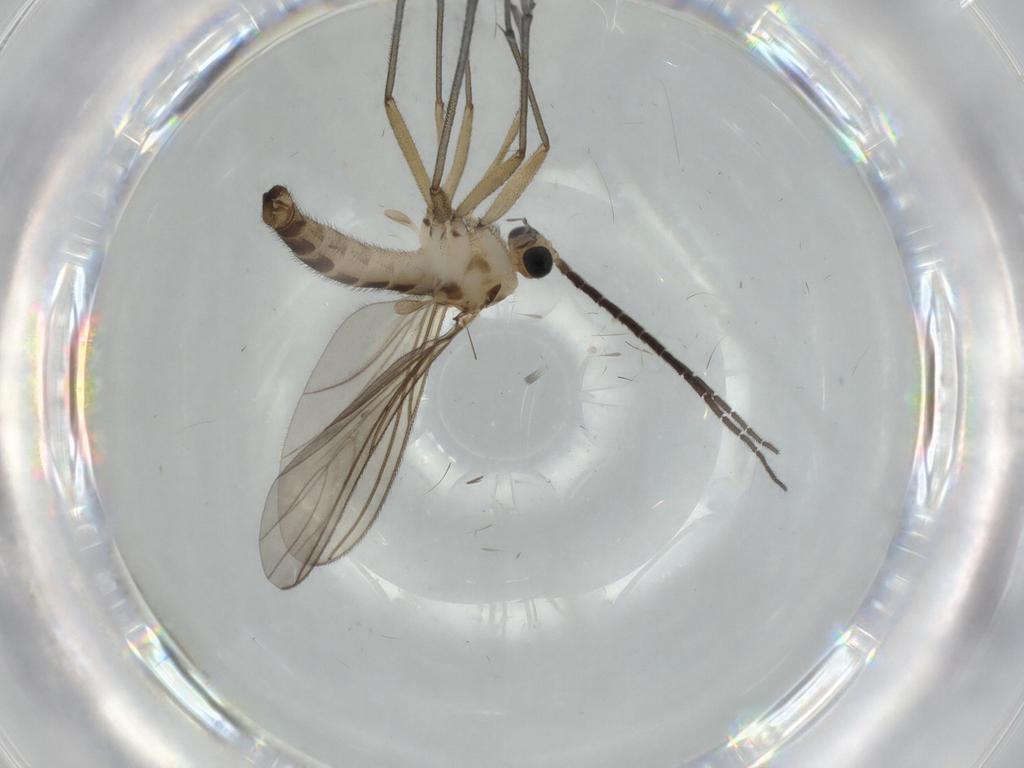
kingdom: Animalia
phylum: Arthropoda
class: Insecta
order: Diptera
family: Sciaridae
